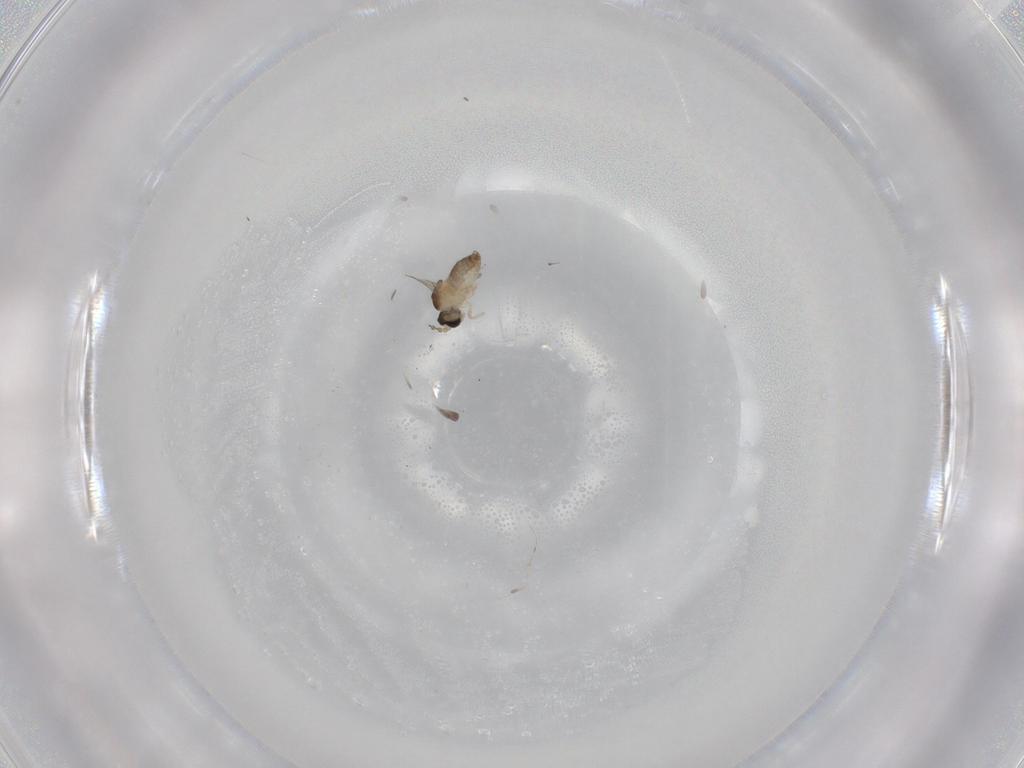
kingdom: Animalia
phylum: Arthropoda
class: Insecta
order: Diptera
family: Cecidomyiidae
